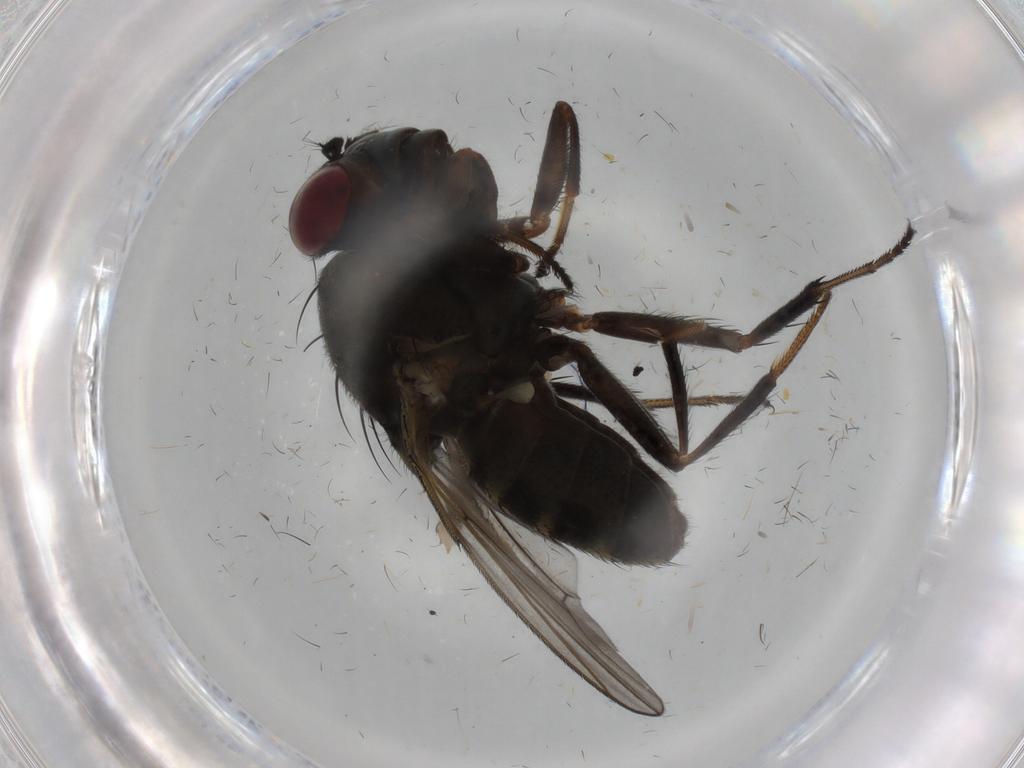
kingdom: Animalia
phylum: Arthropoda
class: Insecta
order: Diptera
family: Ephydridae
